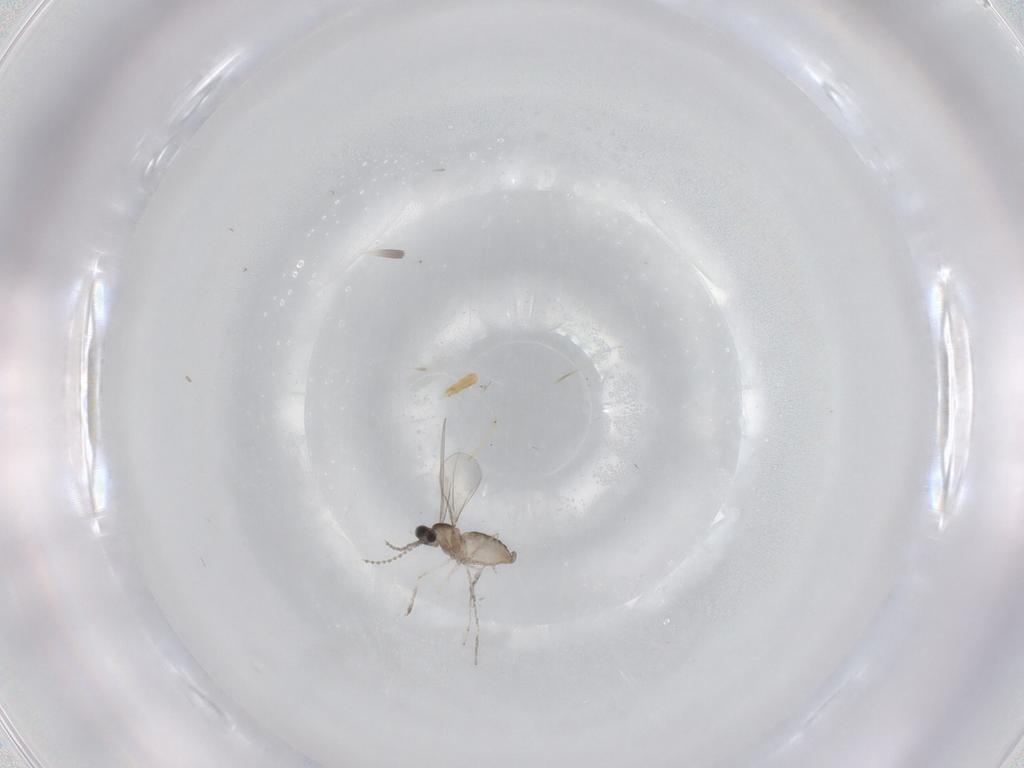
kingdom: Animalia
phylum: Arthropoda
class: Insecta
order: Diptera
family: Cecidomyiidae
